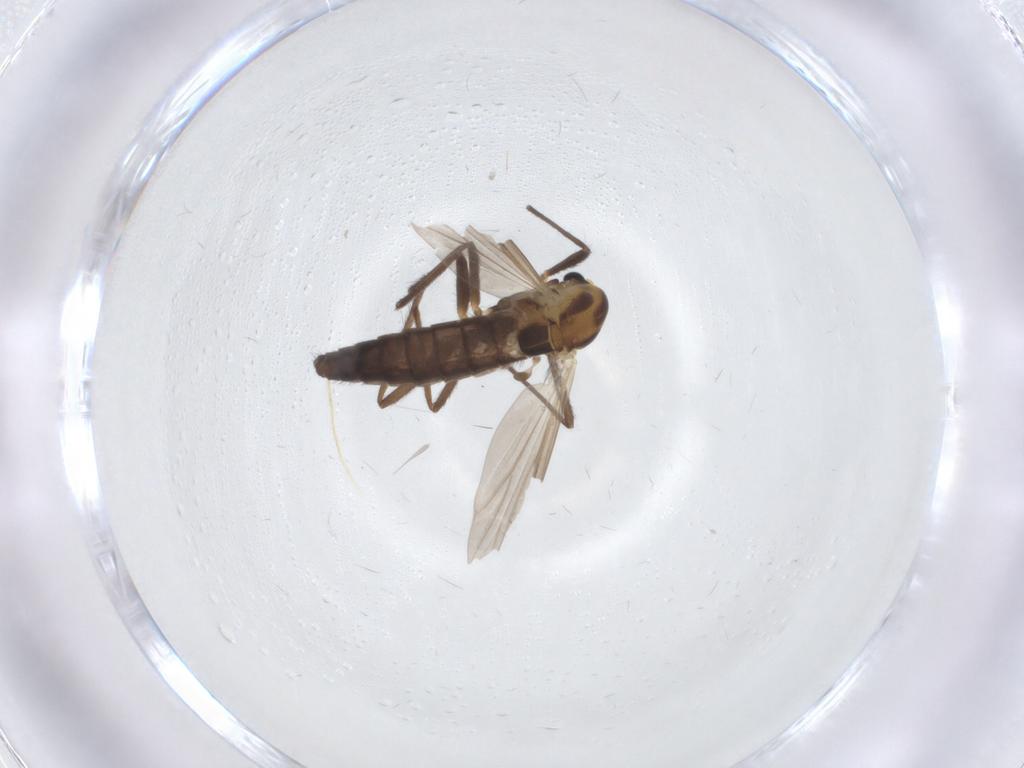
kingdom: Animalia
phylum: Arthropoda
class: Insecta
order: Diptera
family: Chironomidae
